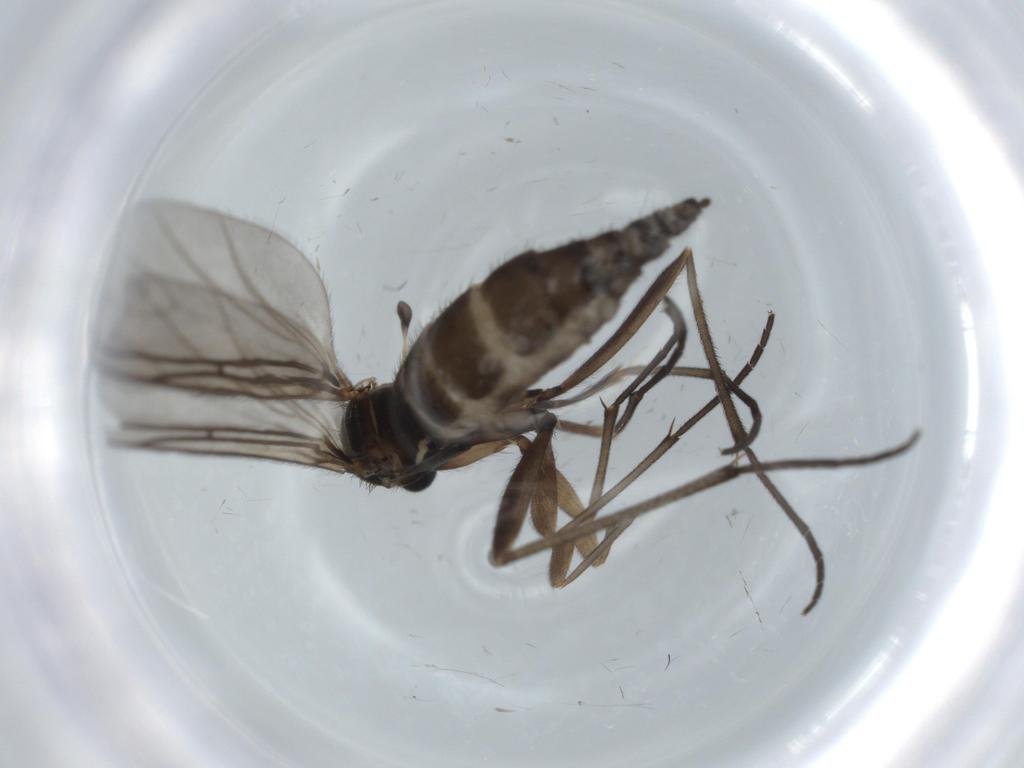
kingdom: Animalia
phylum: Arthropoda
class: Insecta
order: Diptera
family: Sciaridae
